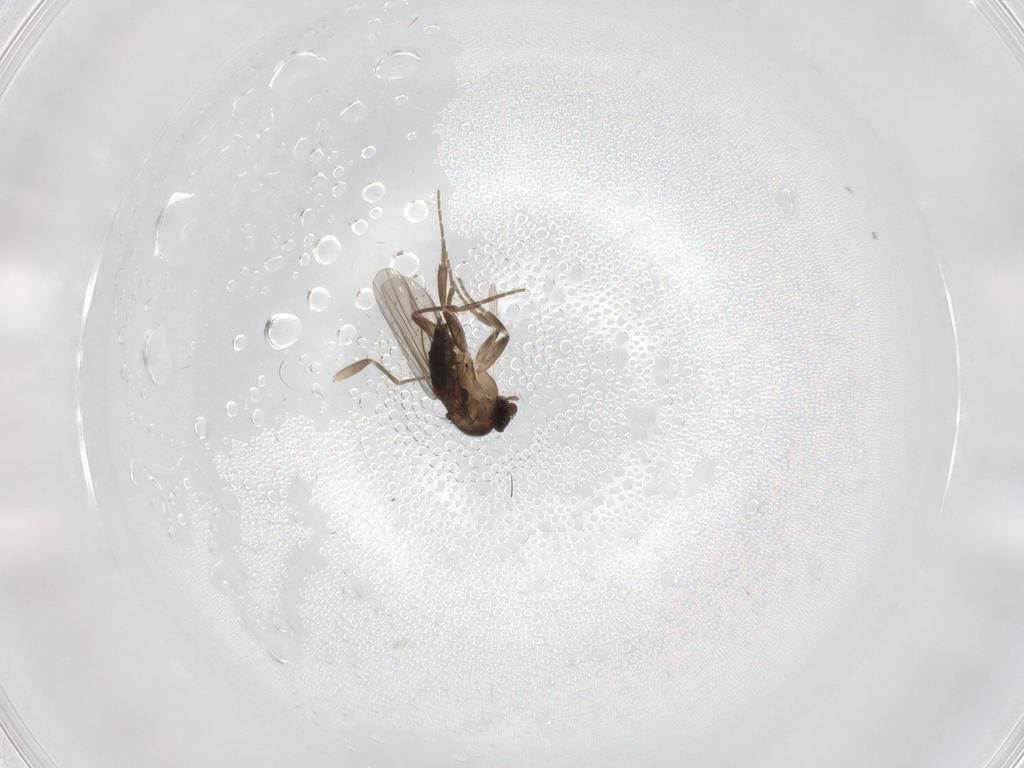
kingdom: Animalia
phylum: Arthropoda
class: Insecta
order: Diptera
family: Phoridae
